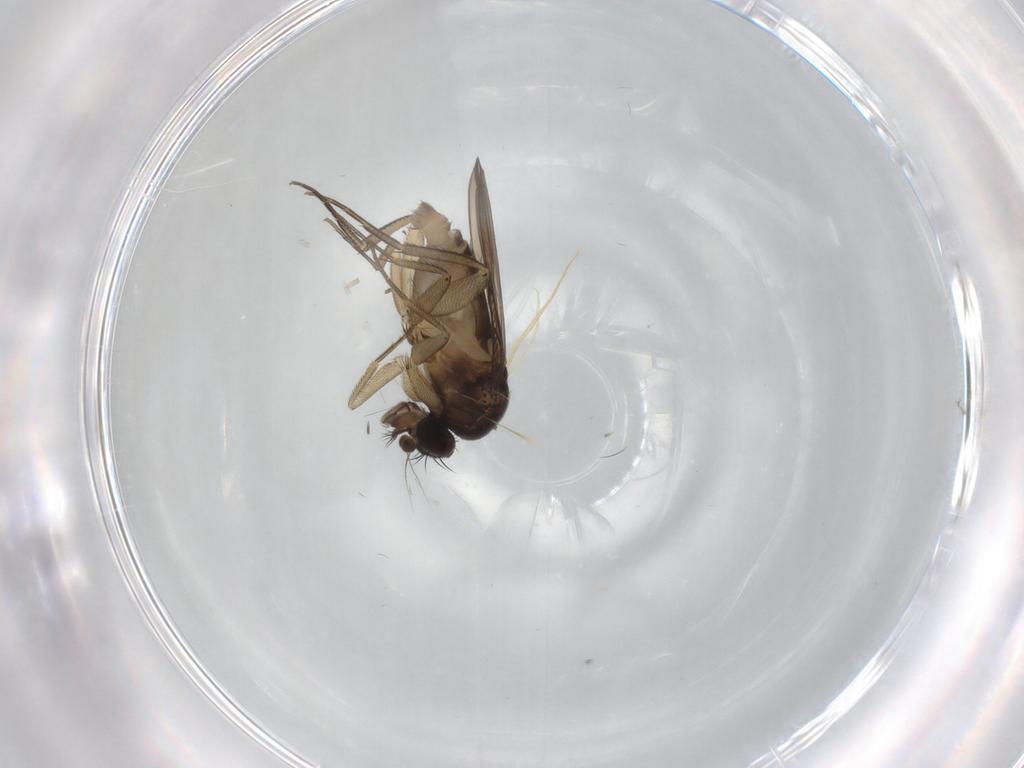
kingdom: Animalia
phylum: Arthropoda
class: Insecta
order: Diptera
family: Phoridae
